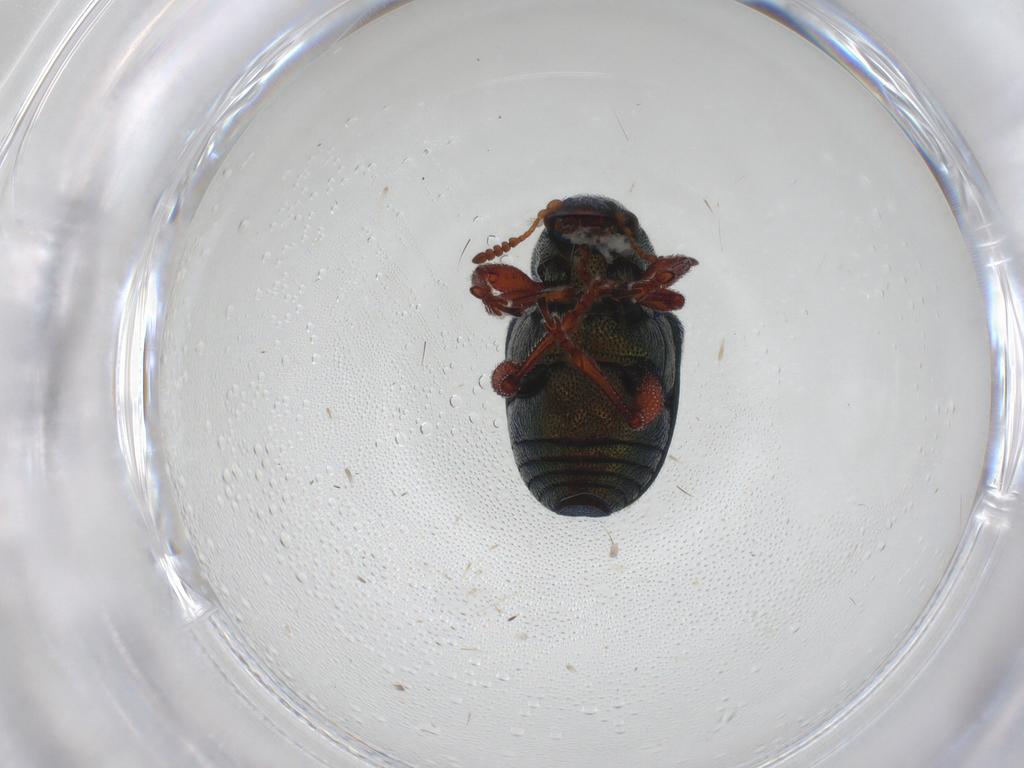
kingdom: Animalia
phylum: Arthropoda
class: Insecta
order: Coleoptera
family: Chrysomelidae
